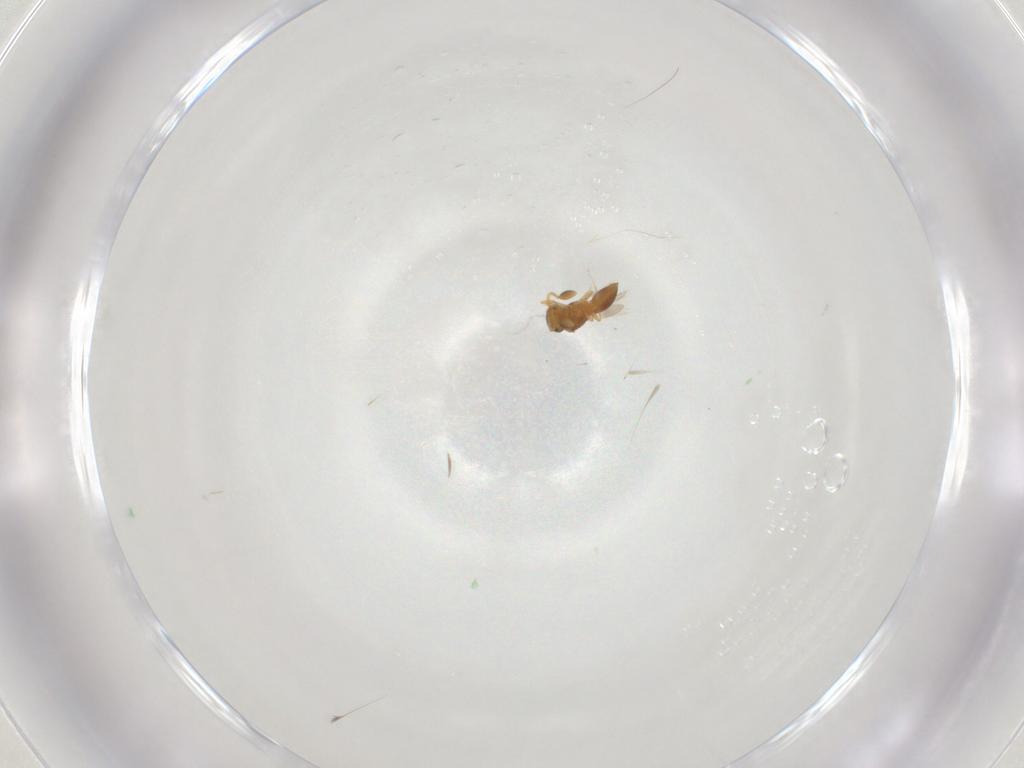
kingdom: Animalia
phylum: Arthropoda
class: Insecta
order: Hymenoptera
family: Scelionidae
